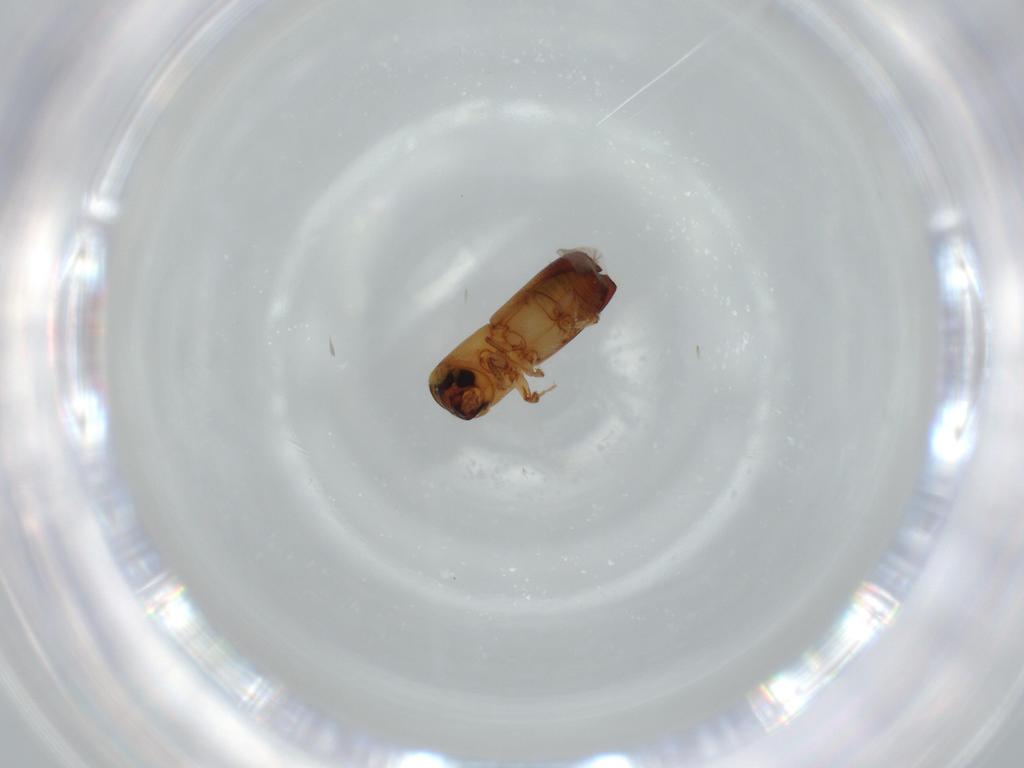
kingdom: Animalia
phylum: Arthropoda
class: Insecta
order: Coleoptera
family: Curculionidae
